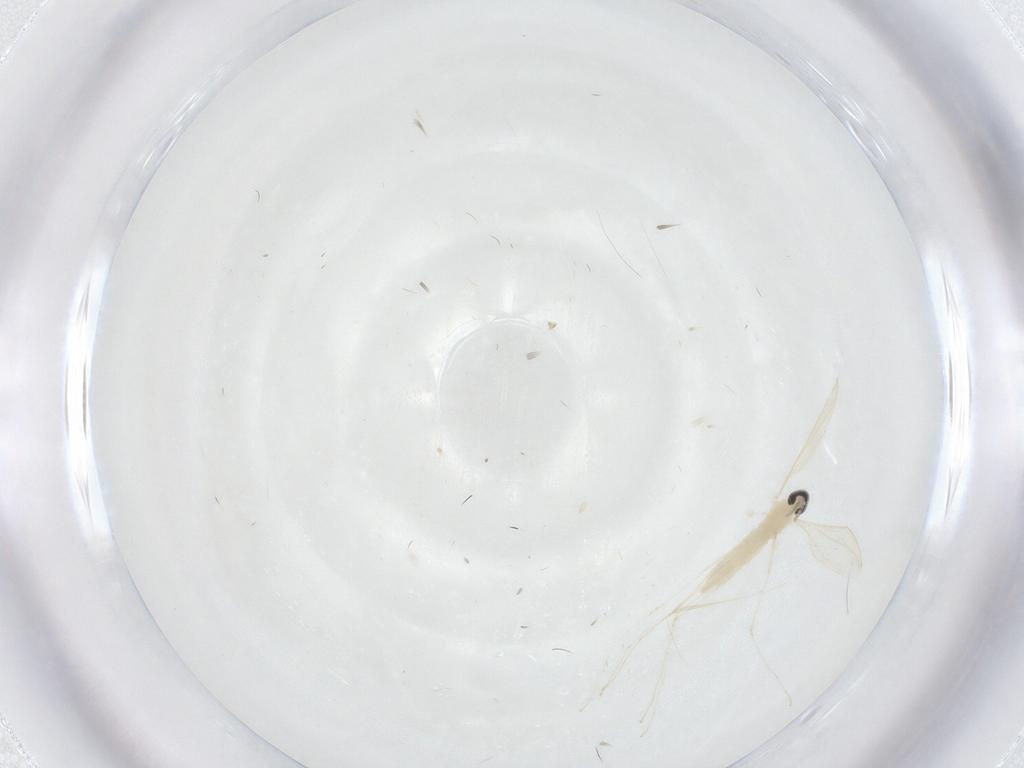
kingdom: Animalia
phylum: Arthropoda
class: Insecta
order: Diptera
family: Cecidomyiidae
